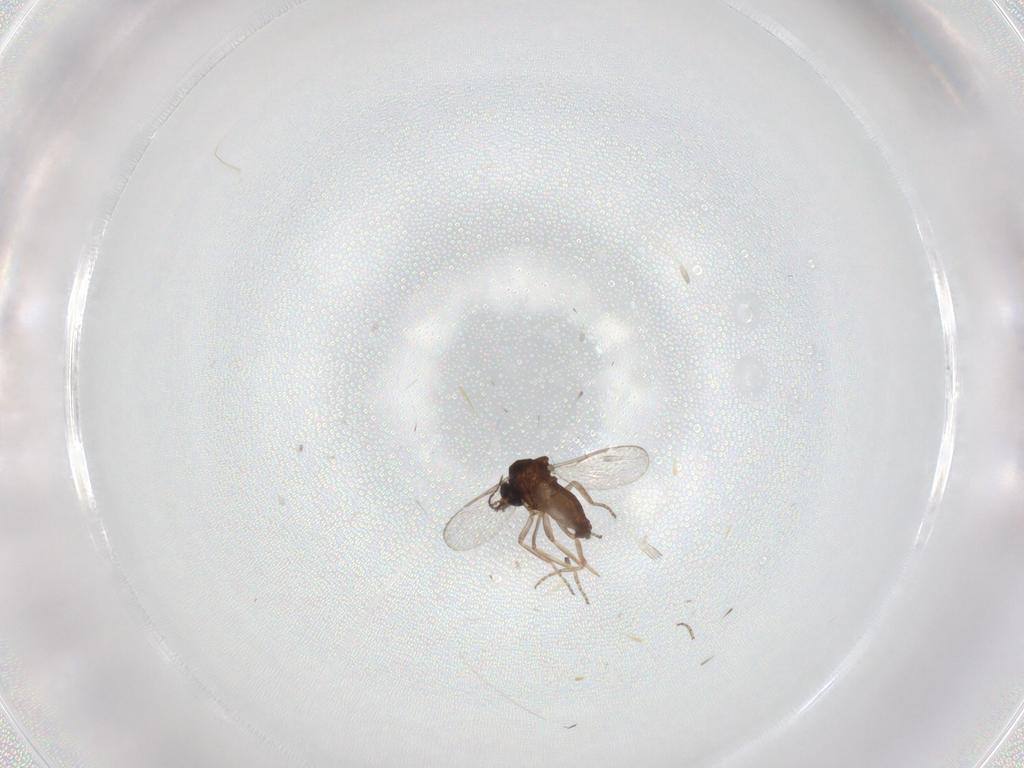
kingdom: Animalia
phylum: Arthropoda
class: Insecta
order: Diptera
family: Ceratopogonidae
